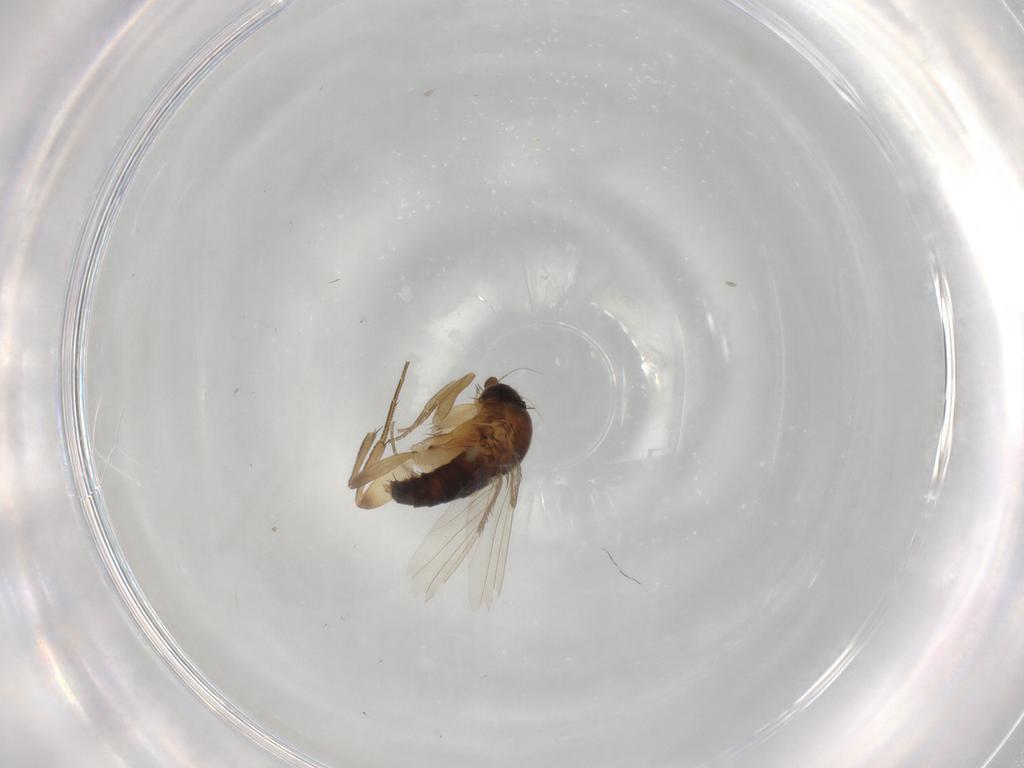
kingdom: Animalia
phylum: Arthropoda
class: Insecta
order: Diptera
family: Phoridae
